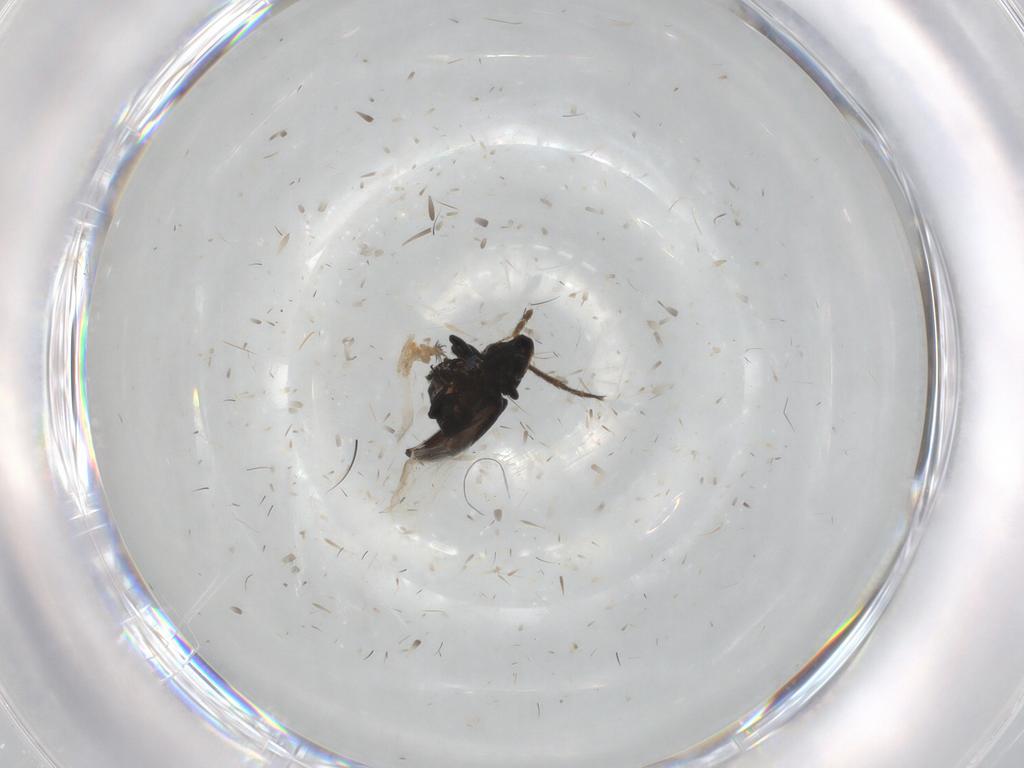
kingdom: Animalia
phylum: Arthropoda
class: Insecta
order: Coleoptera
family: Curculionidae
